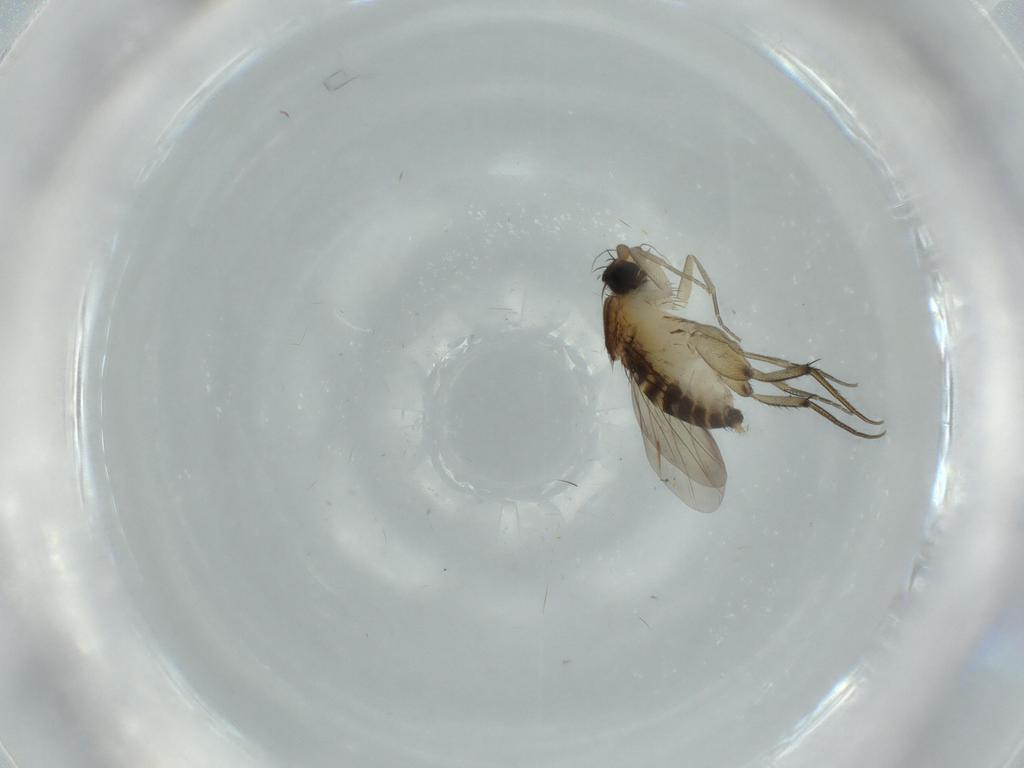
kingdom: Animalia
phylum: Arthropoda
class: Insecta
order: Diptera
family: Phoridae
